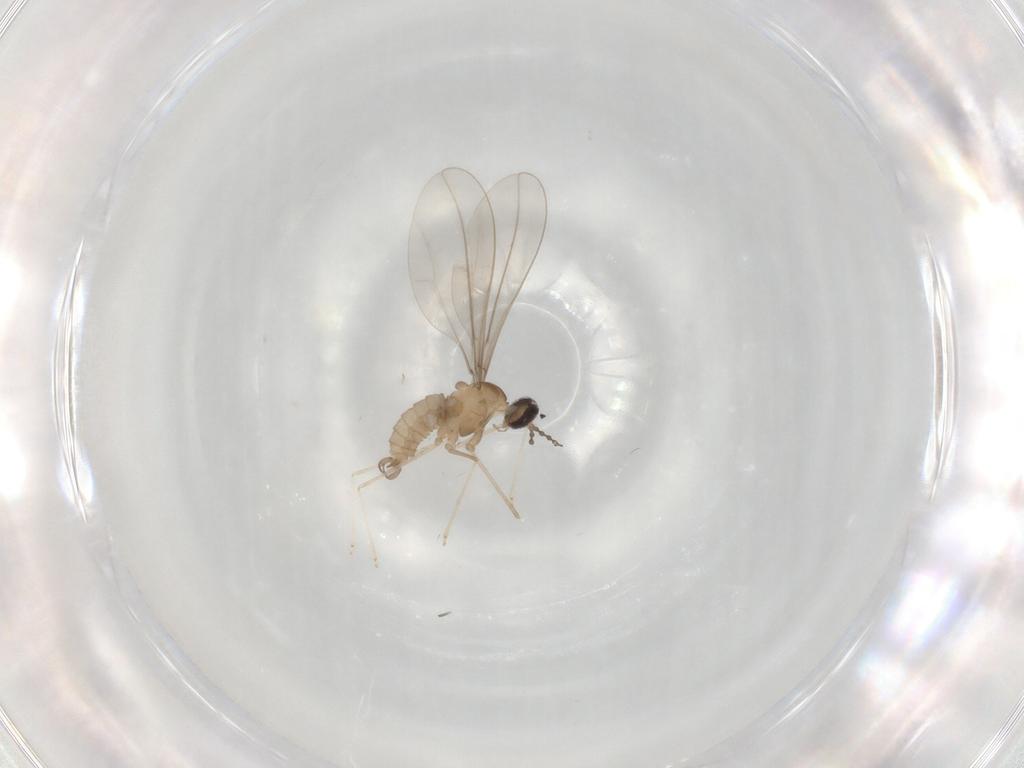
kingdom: Animalia
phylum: Arthropoda
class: Insecta
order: Diptera
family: Cecidomyiidae
